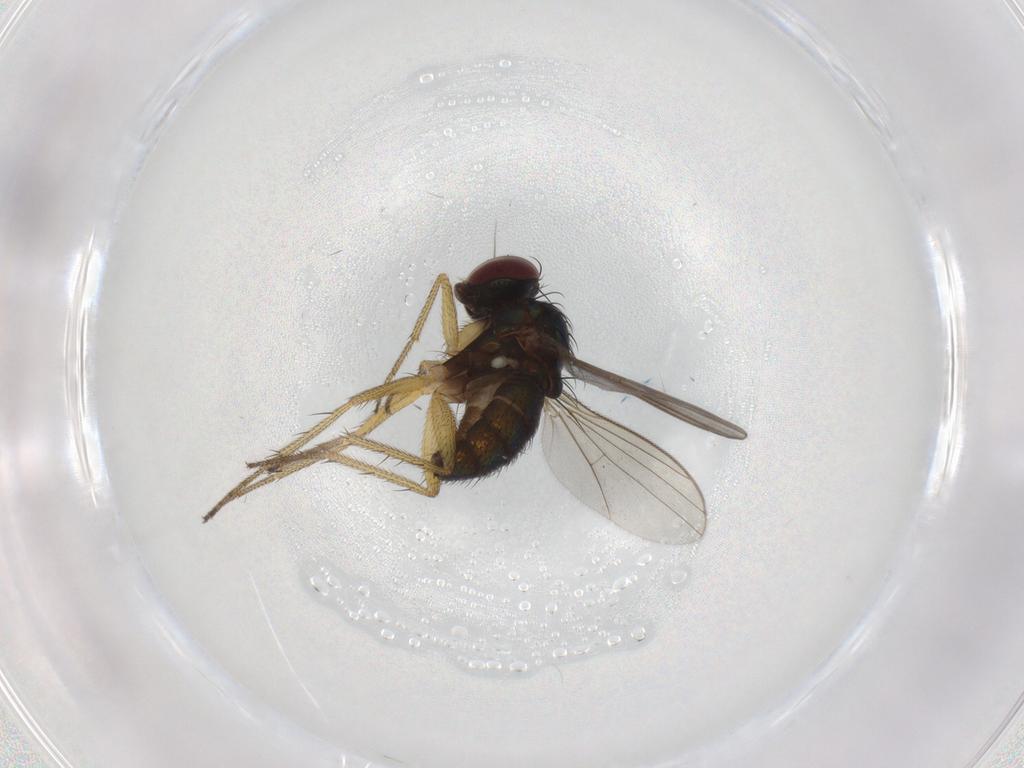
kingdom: Animalia
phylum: Arthropoda
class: Insecta
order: Diptera
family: Dolichopodidae
